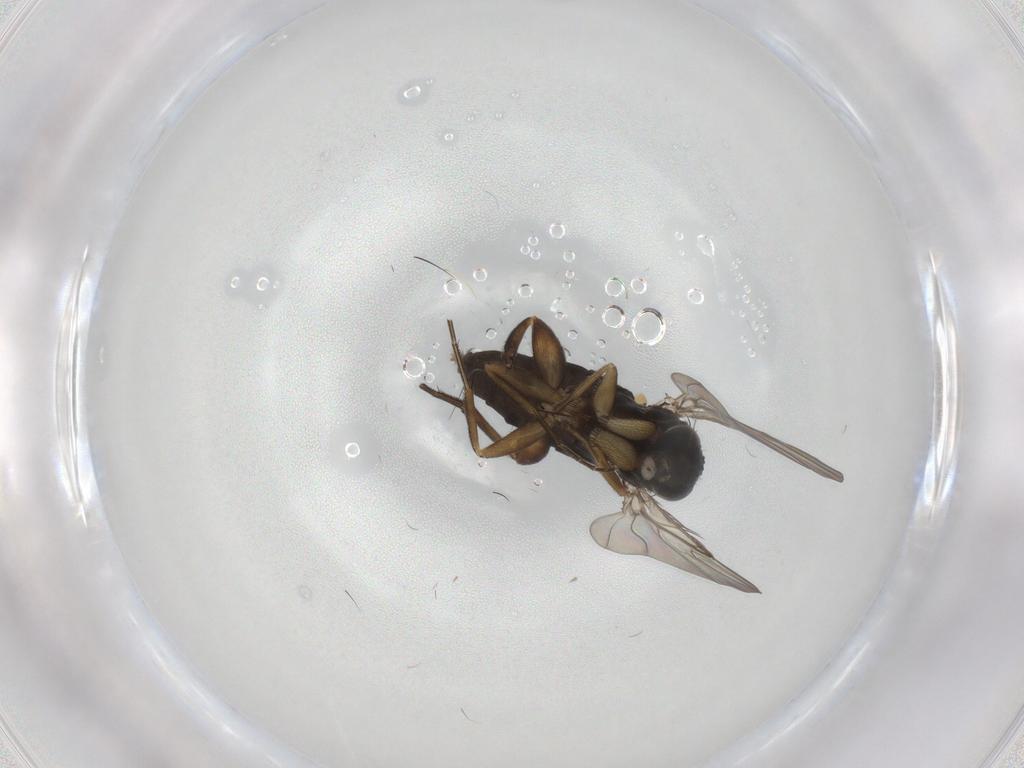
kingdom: Animalia
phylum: Arthropoda
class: Insecta
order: Diptera
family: Phoridae
